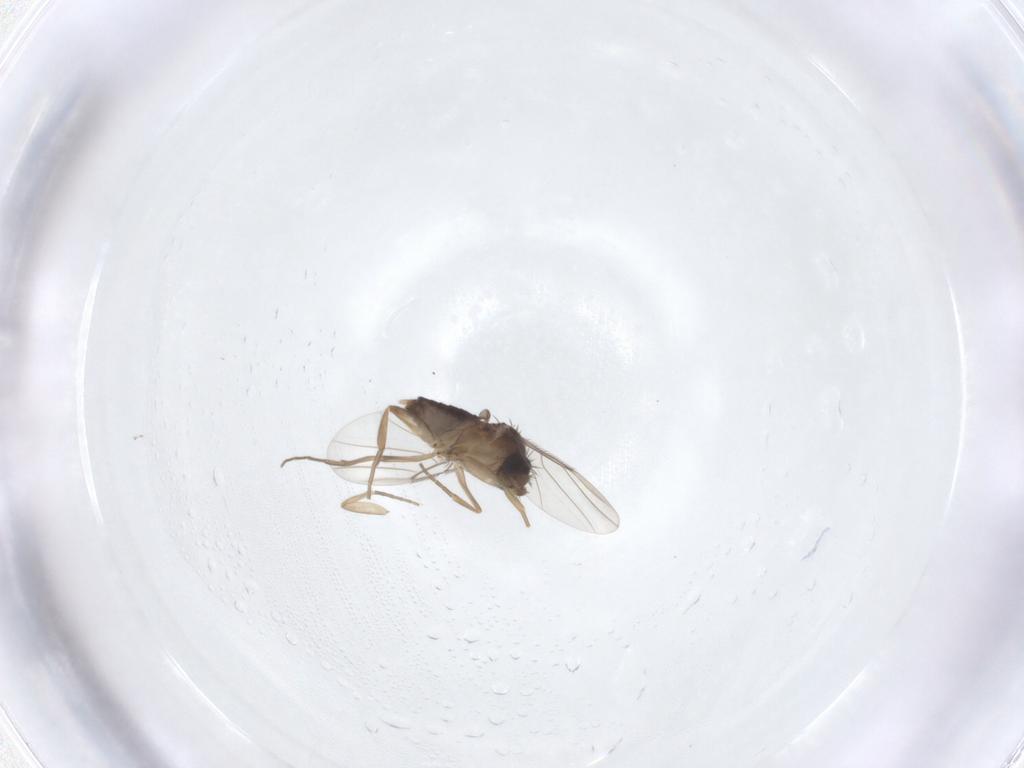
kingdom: Animalia
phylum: Arthropoda
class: Insecta
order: Diptera
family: Phoridae
